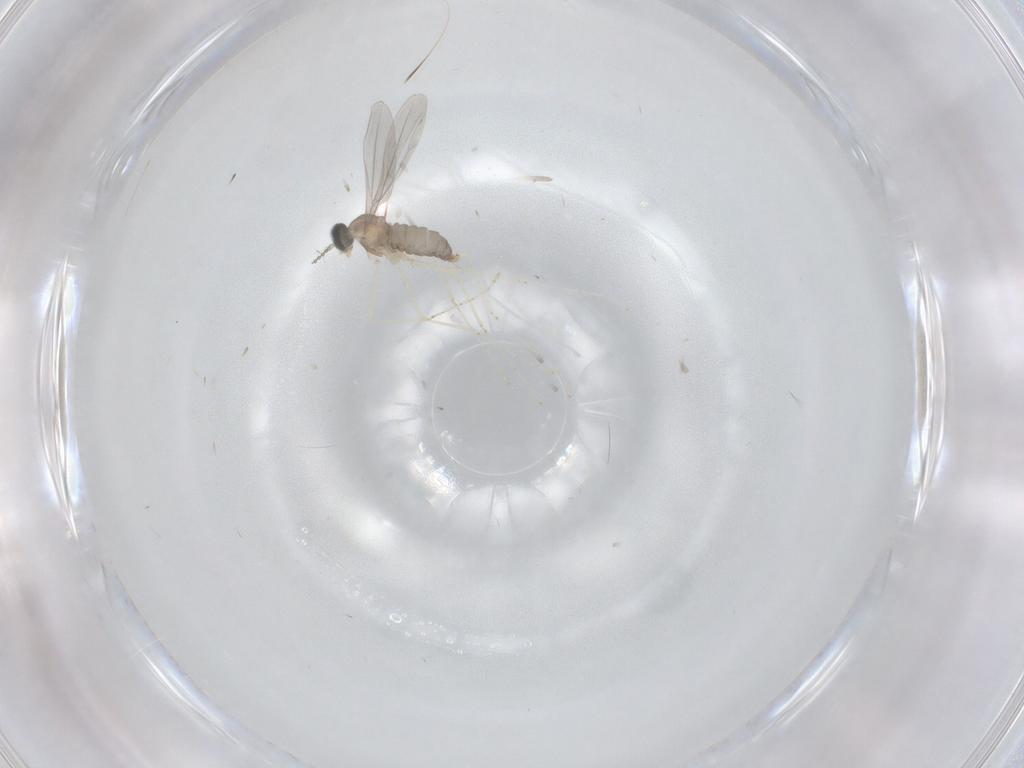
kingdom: Animalia
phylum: Arthropoda
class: Insecta
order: Diptera
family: Cecidomyiidae
